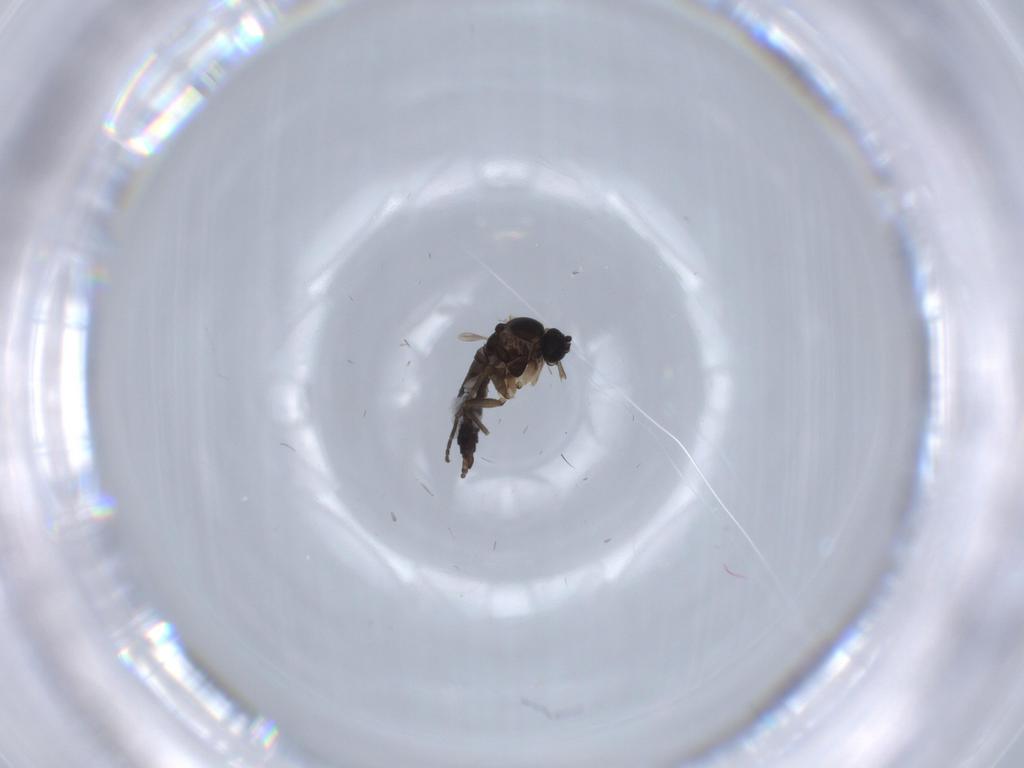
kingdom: Animalia
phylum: Arthropoda
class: Insecta
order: Diptera
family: Sciaridae
